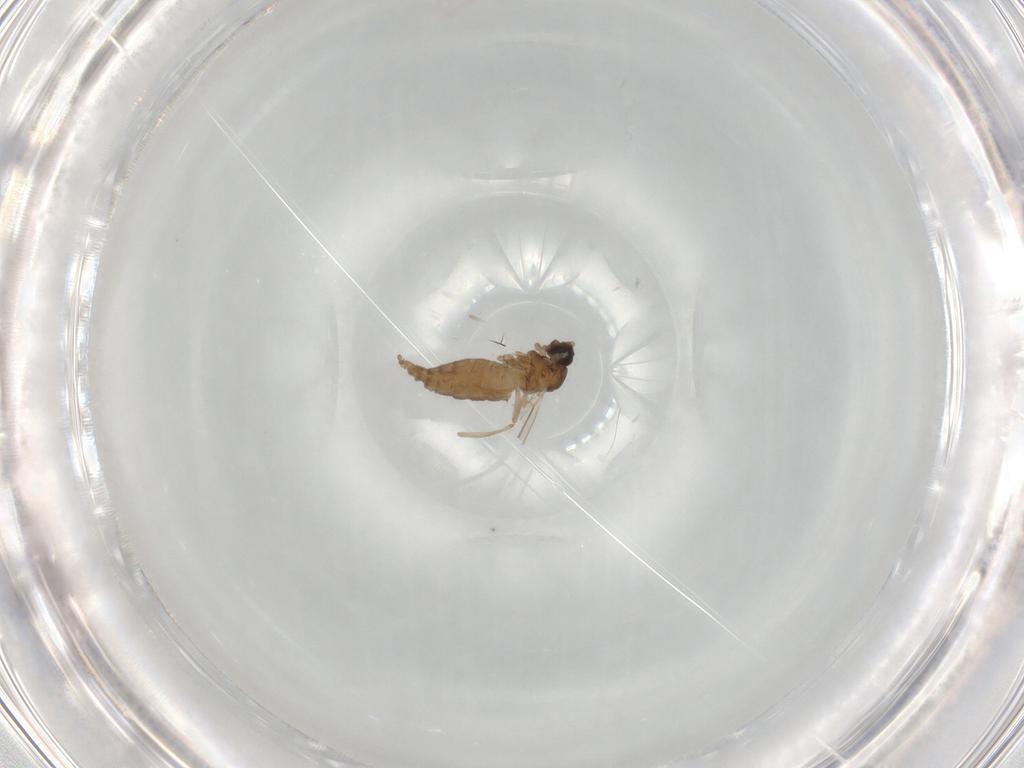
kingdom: Animalia
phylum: Arthropoda
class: Insecta
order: Diptera
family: Cecidomyiidae
